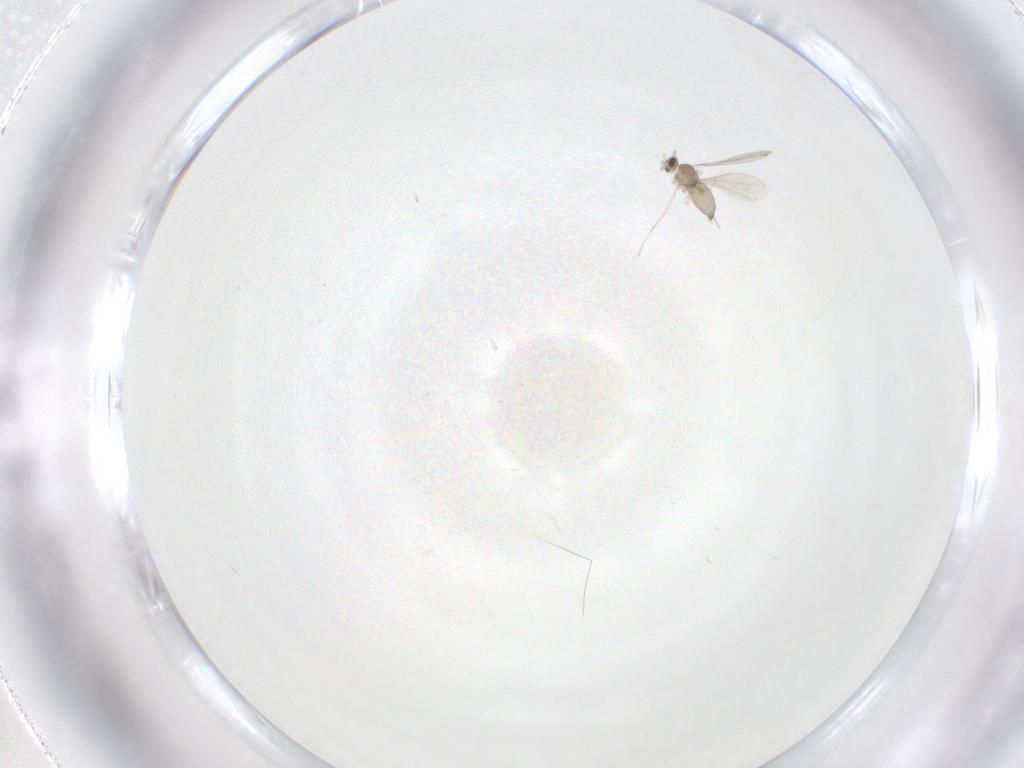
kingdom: Animalia
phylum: Arthropoda
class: Insecta
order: Diptera
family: Cecidomyiidae
